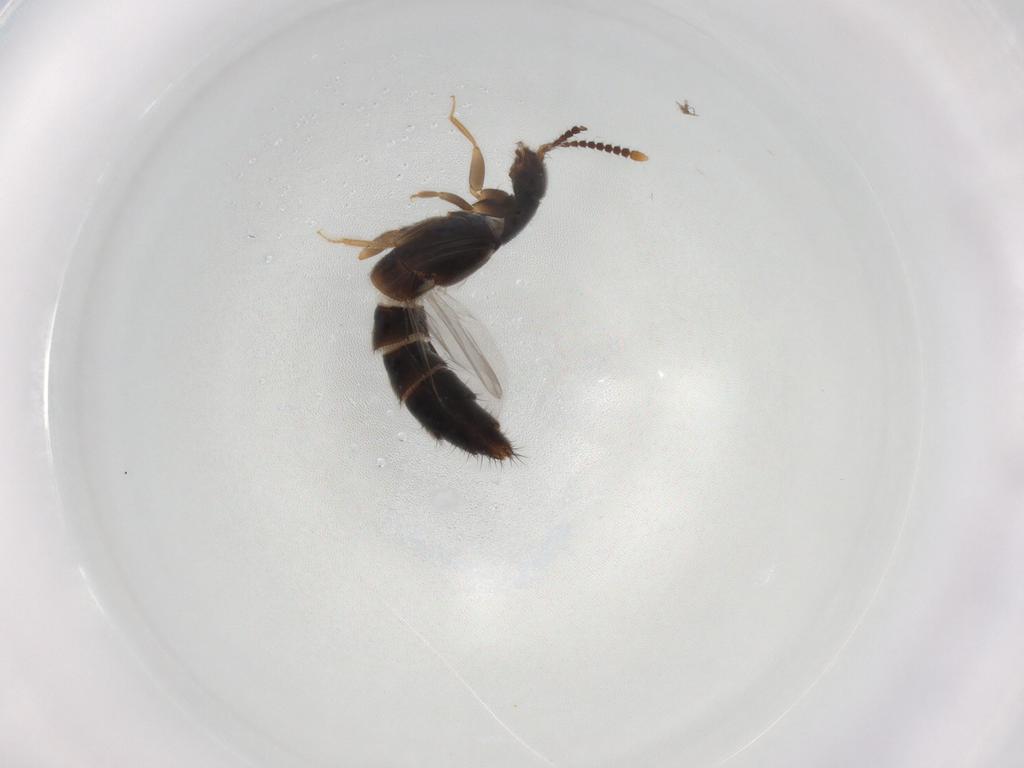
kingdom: Animalia
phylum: Arthropoda
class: Insecta
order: Coleoptera
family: Staphylinidae
